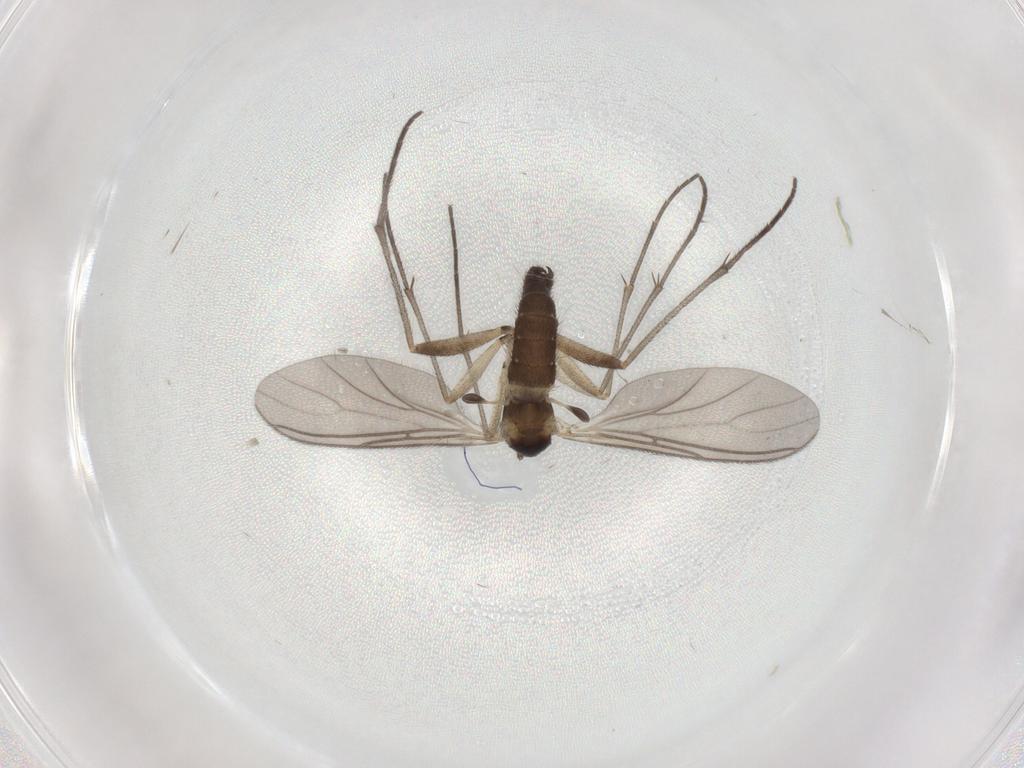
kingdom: Animalia
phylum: Arthropoda
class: Insecta
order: Diptera
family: Sciaridae
